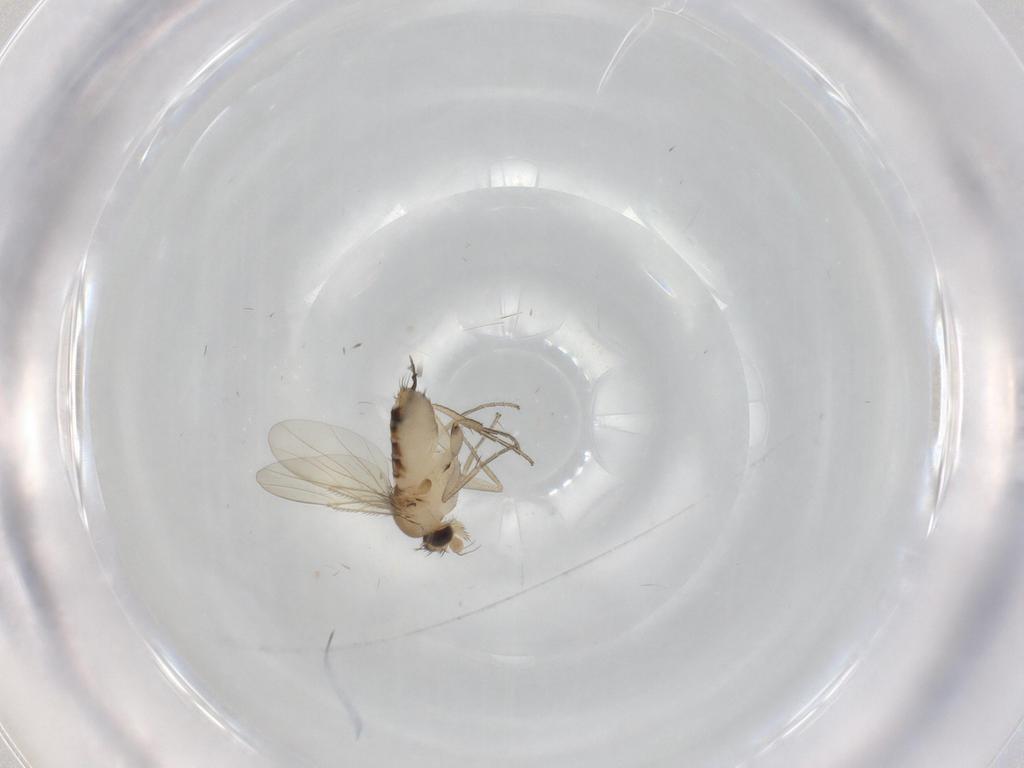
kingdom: Animalia
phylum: Arthropoda
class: Insecta
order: Diptera
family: Phoridae
